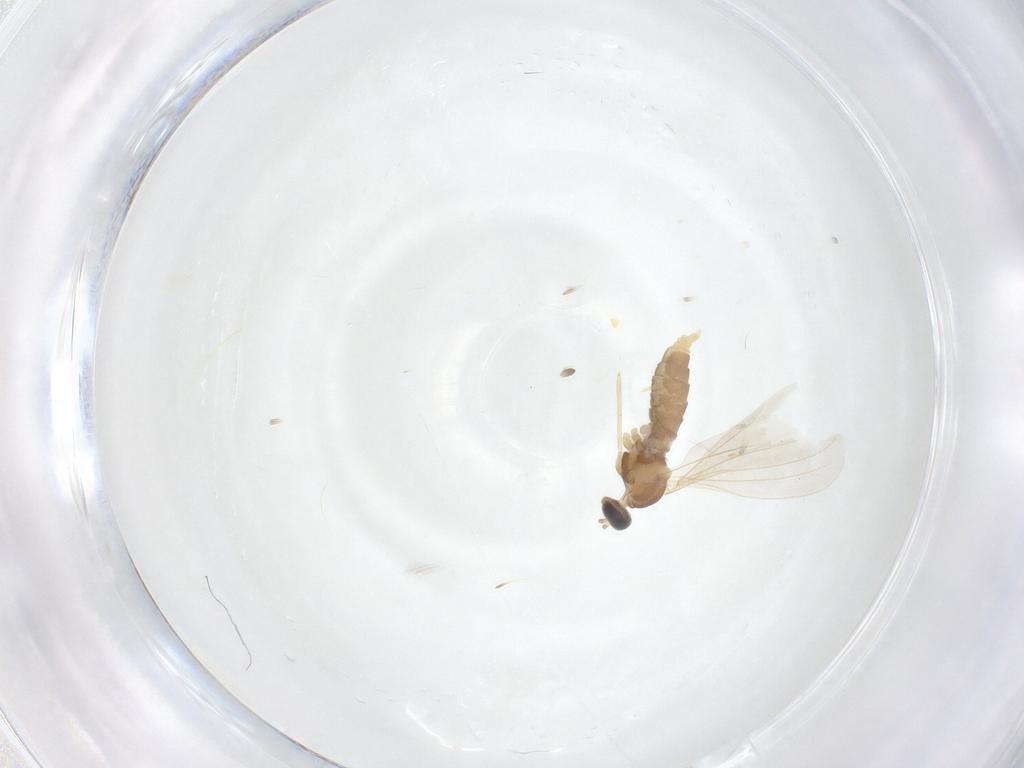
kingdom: Animalia
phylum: Arthropoda
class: Insecta
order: Diptera
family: Cecidomyiidae
